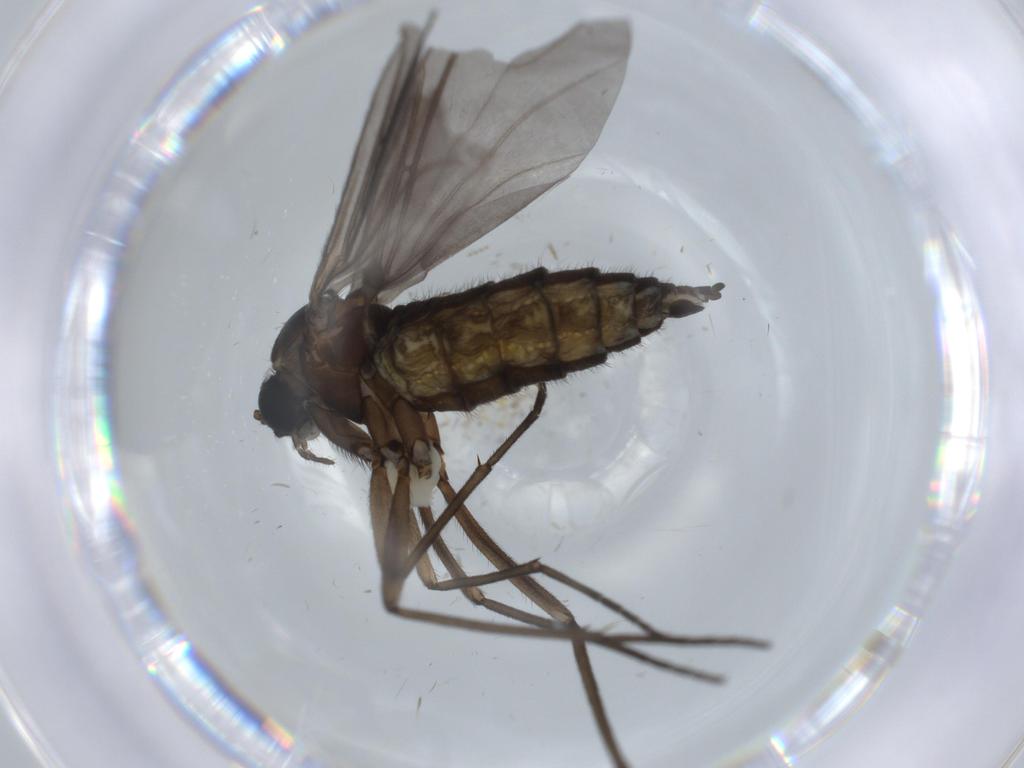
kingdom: Animalia
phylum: Arthropoda
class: Insecta
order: Diptera
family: Sciaridae
